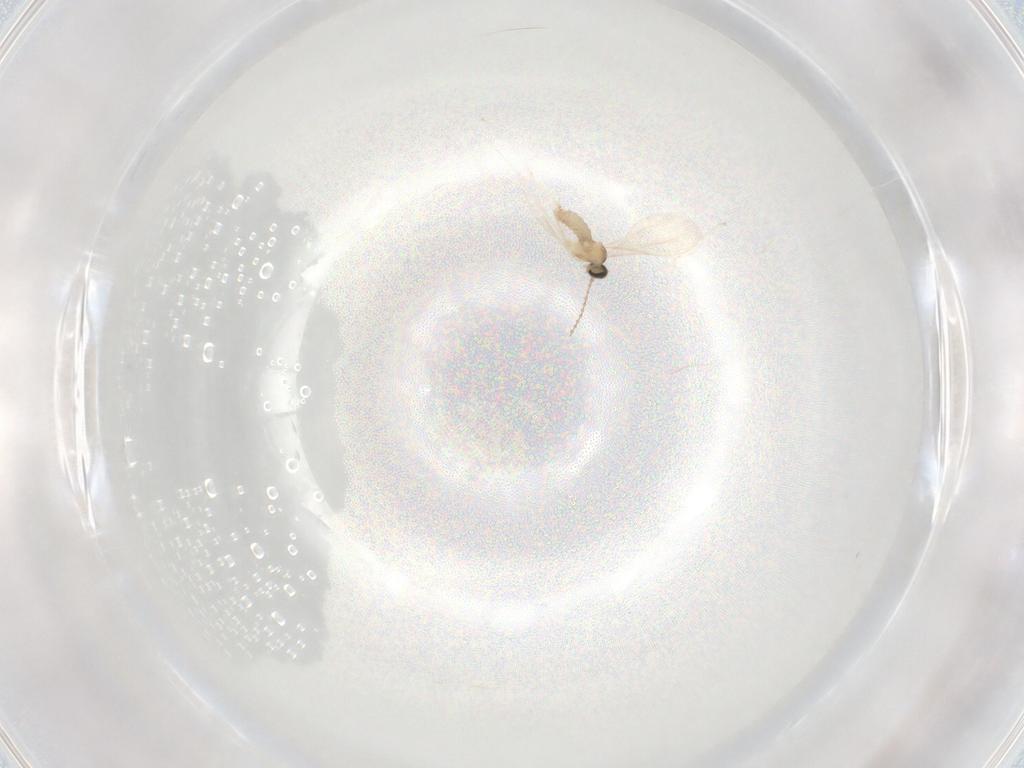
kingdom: Animalia
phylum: Arthropoda
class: Insecta
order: Diptera
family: Cecidomyiidae
